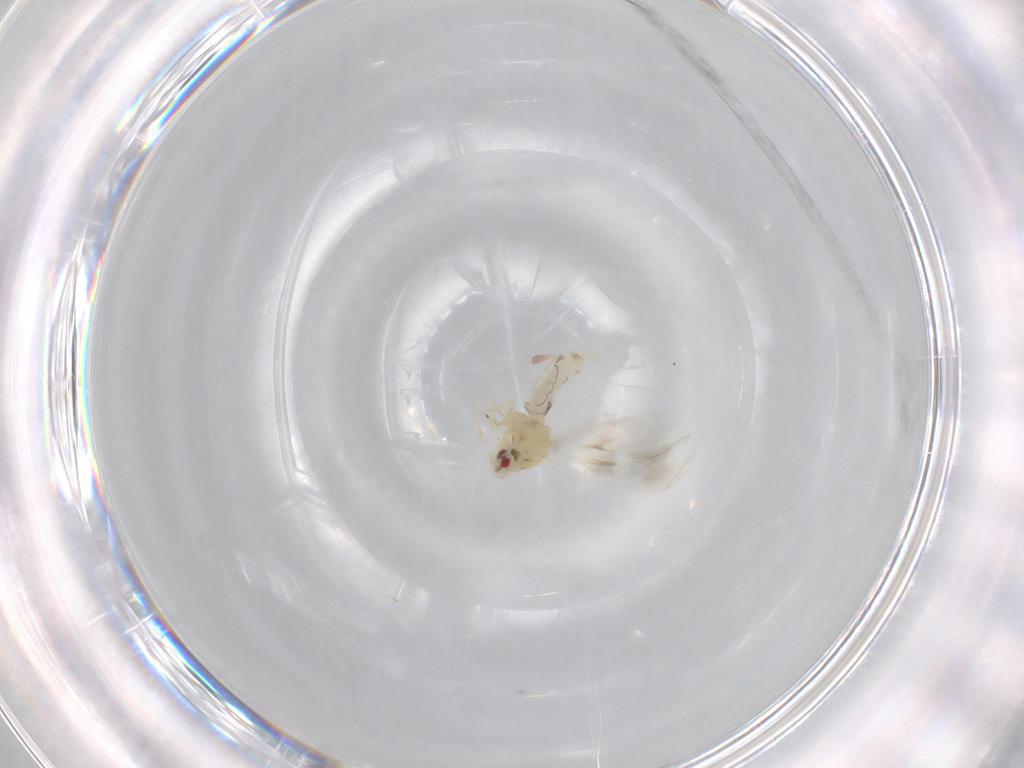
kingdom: Animalia
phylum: Arthropoda
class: Insecta
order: Hemiptera
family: Aleyrodidae
